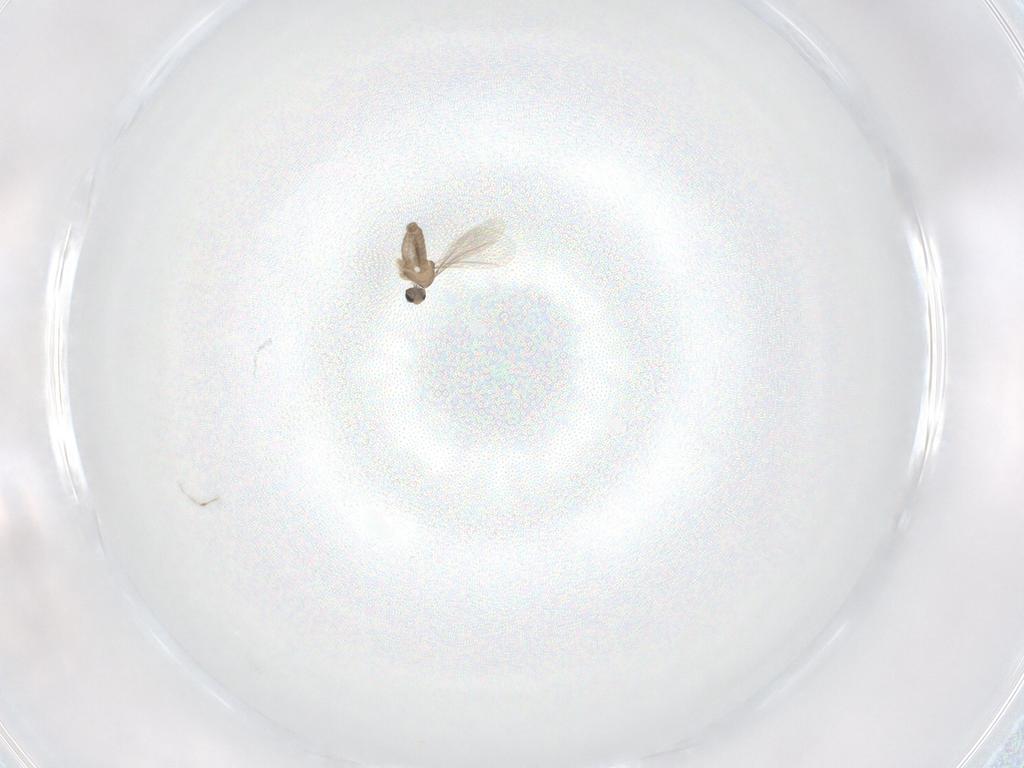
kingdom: Animalia
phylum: Arthropoda
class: Insecta
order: Diptera
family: Cecidomyiidae
